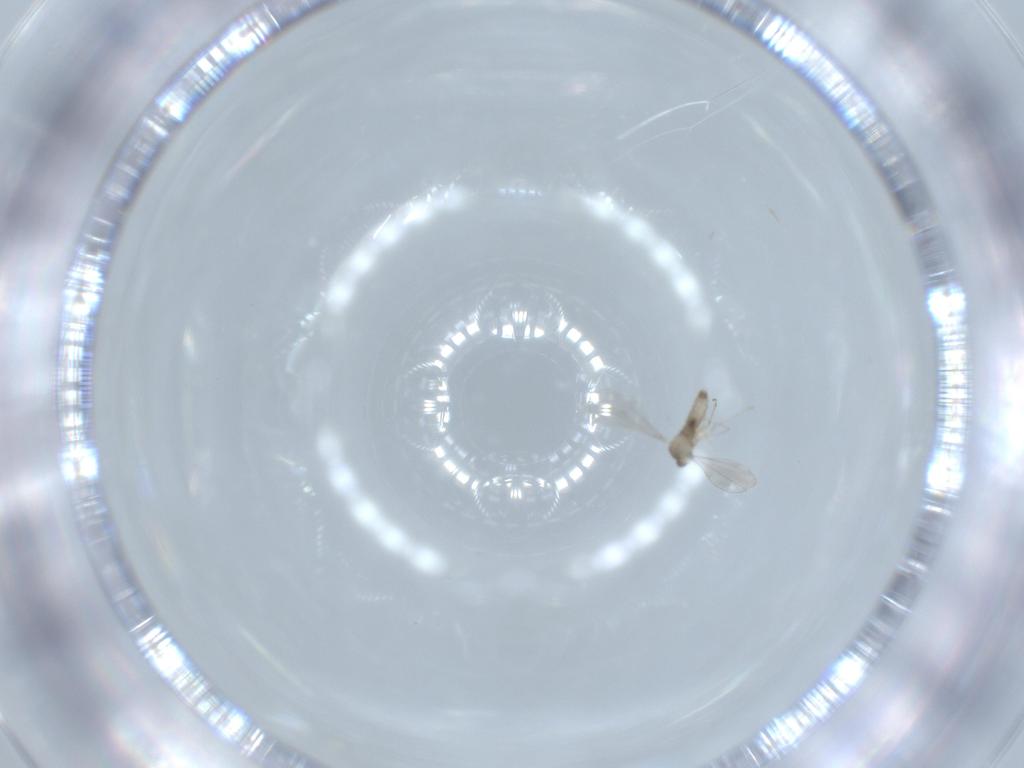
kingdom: Animalia
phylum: Arthropoda
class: Insecta
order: Diptera
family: Cecidomyiidae
